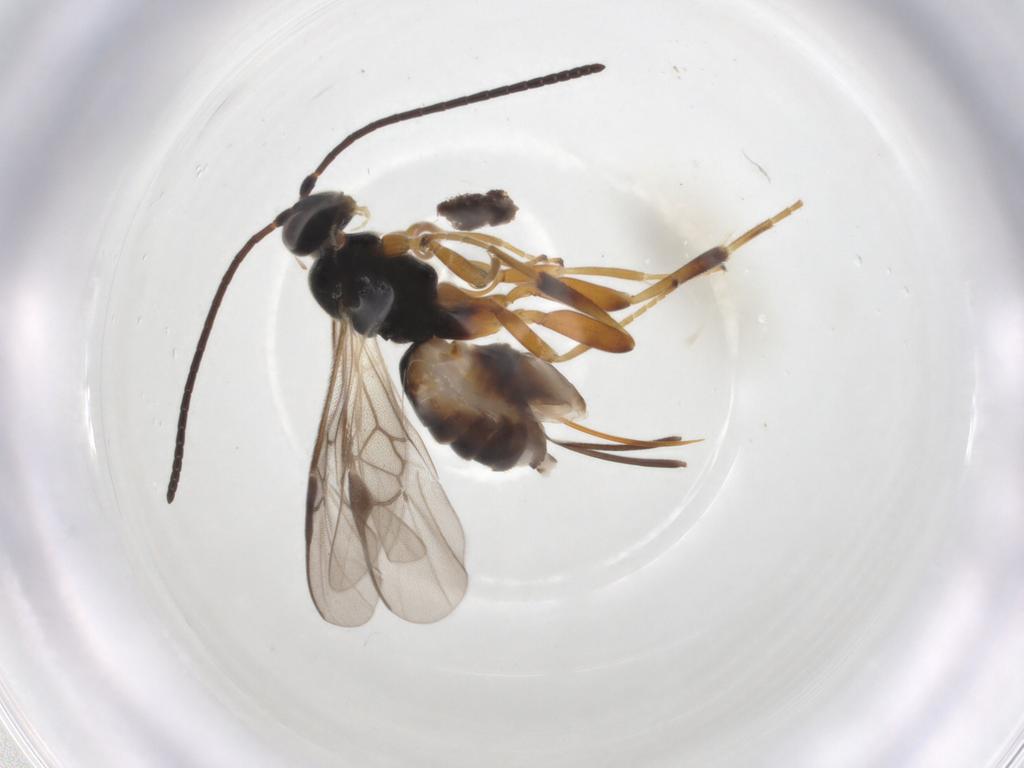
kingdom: Animalia
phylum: Arthropoda
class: Insecta
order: Hymenoptera
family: Braconidae
